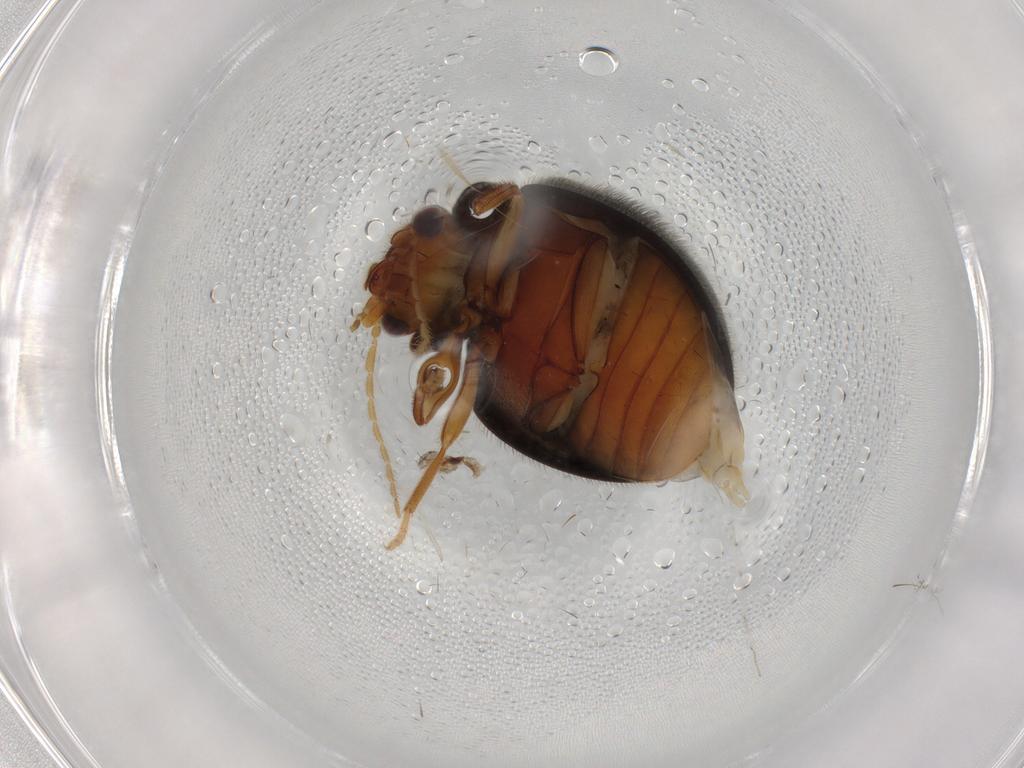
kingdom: Animalia
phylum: Arthropoda
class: Insecta
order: Coleoptera
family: Scirtidae
